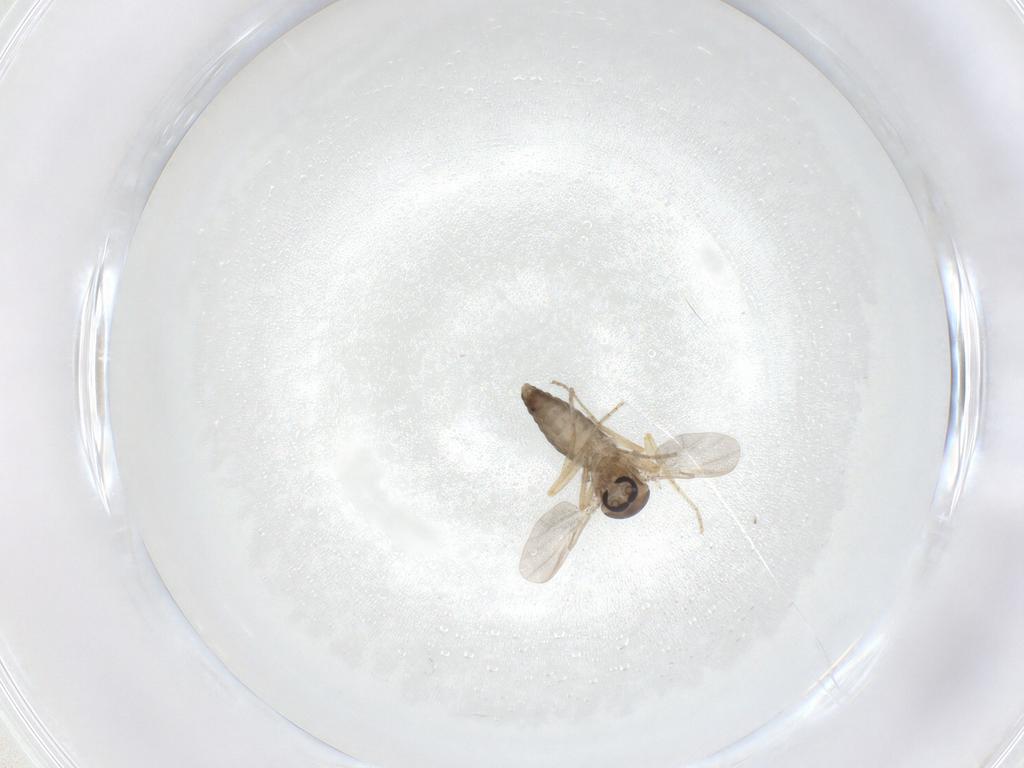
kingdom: Animalia
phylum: Arthropoda
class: Insecta
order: Diptera
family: Ceratopogonidae
